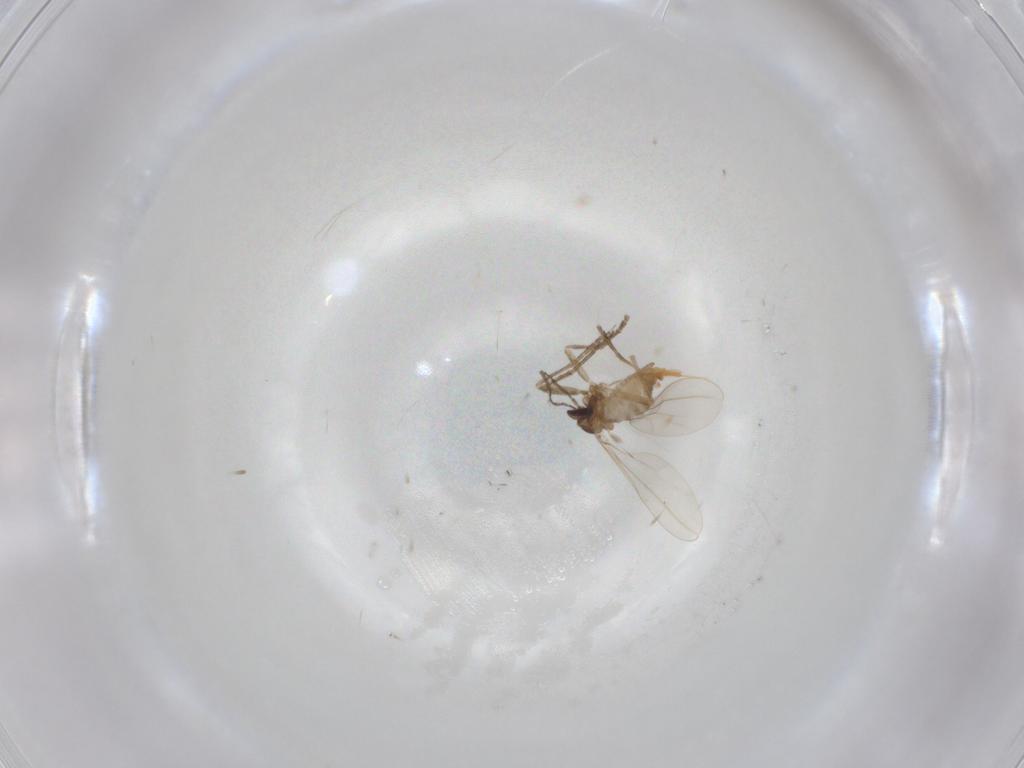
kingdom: Animalia
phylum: Arthropoda
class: Insecta
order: Diptera
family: Cecidomyiidae
